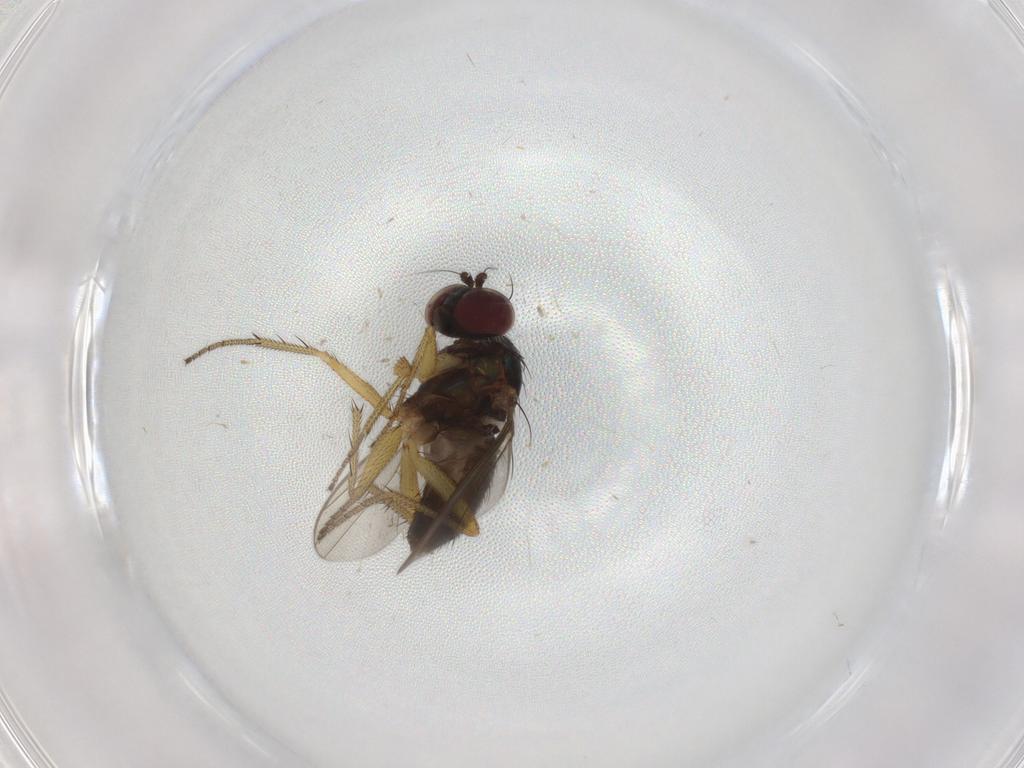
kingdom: Animalia
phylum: Arthropoda
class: Insecta
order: Diptera
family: Dolichopodidae
